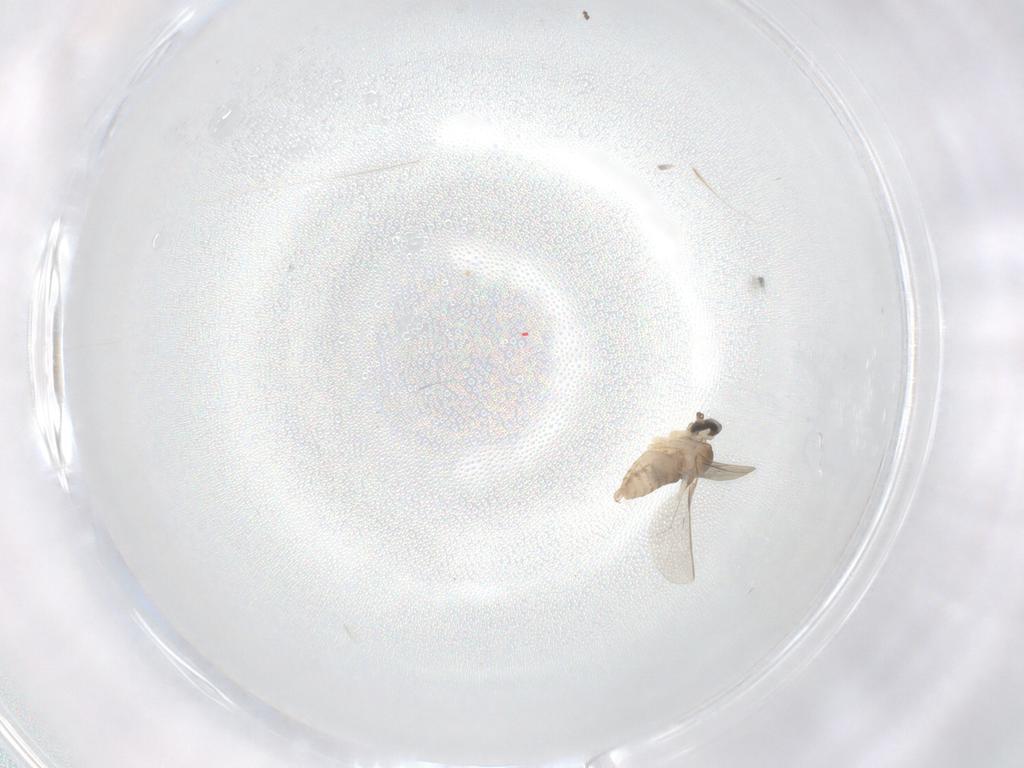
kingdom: Animalia
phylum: Arthropoda
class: Insecta
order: Diptera
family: Cecidomyiidae
